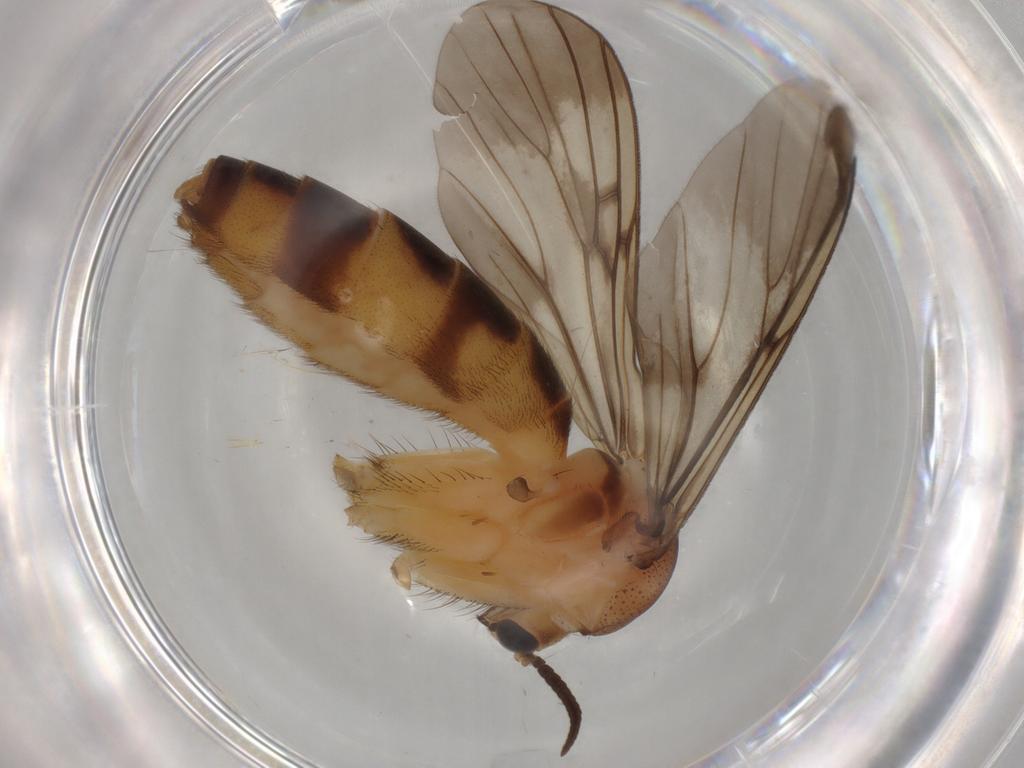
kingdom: Animalia
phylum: Arthropoda
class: Insecta
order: Diptera
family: Mycetophilidae
